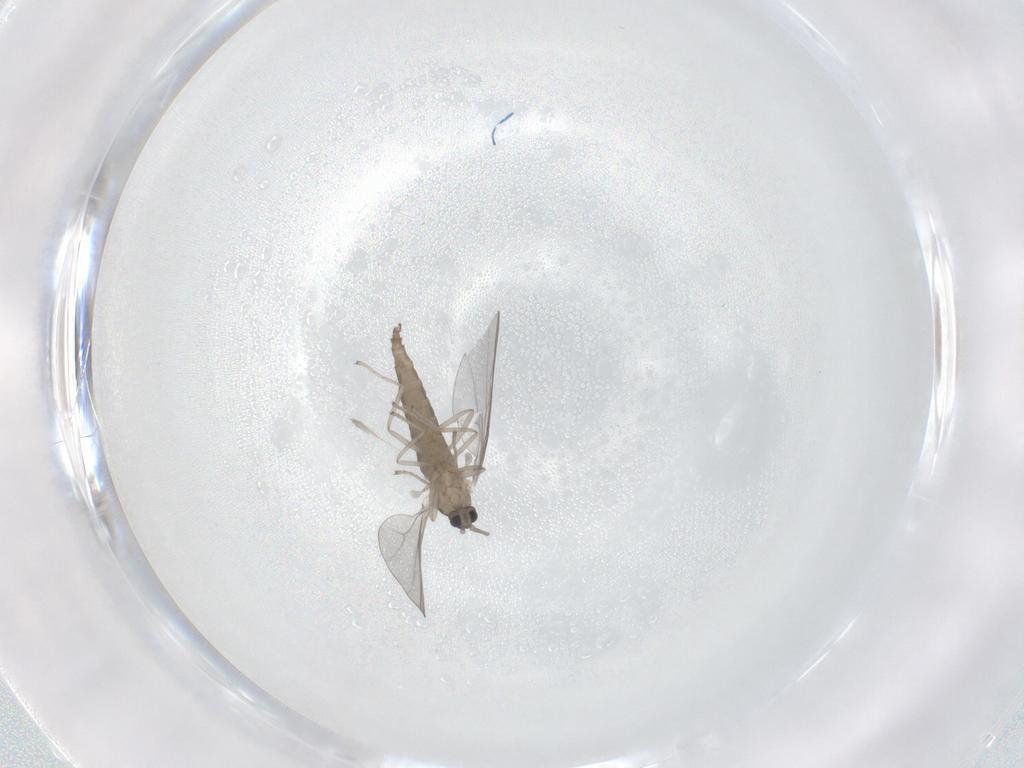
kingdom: Animalia
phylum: Arthropoda
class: Insecta
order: Diptera
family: Cecidomyiidae
